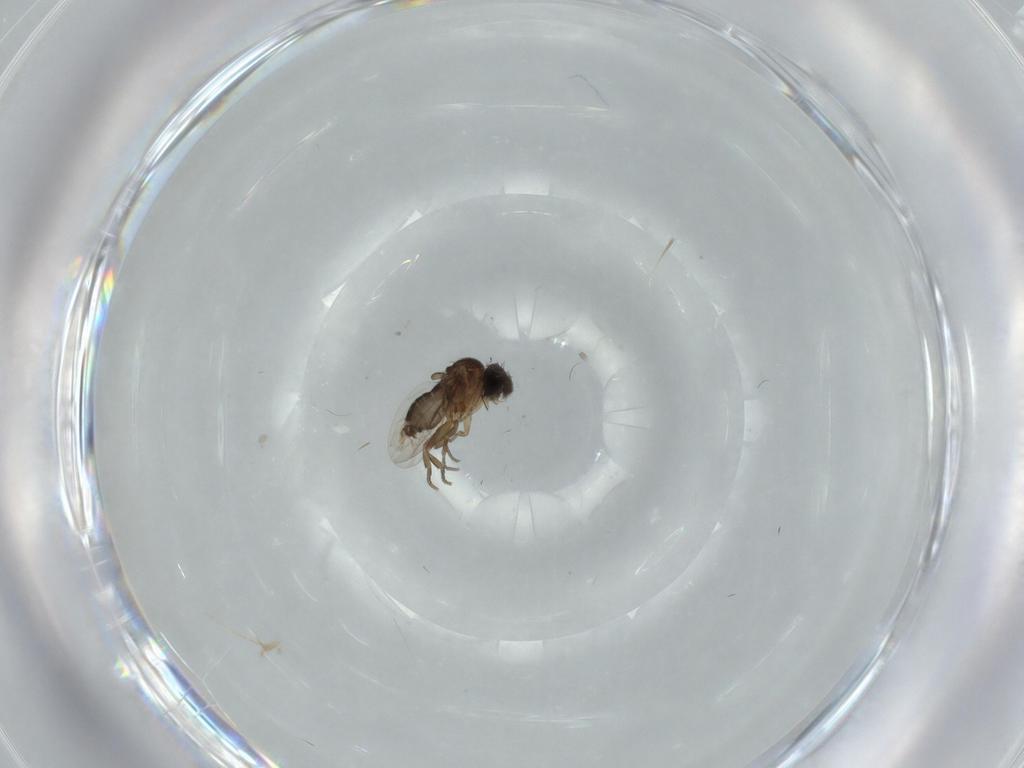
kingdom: Animalia
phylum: Arthropoda
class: Insecta
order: Diptera
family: Phoridae
